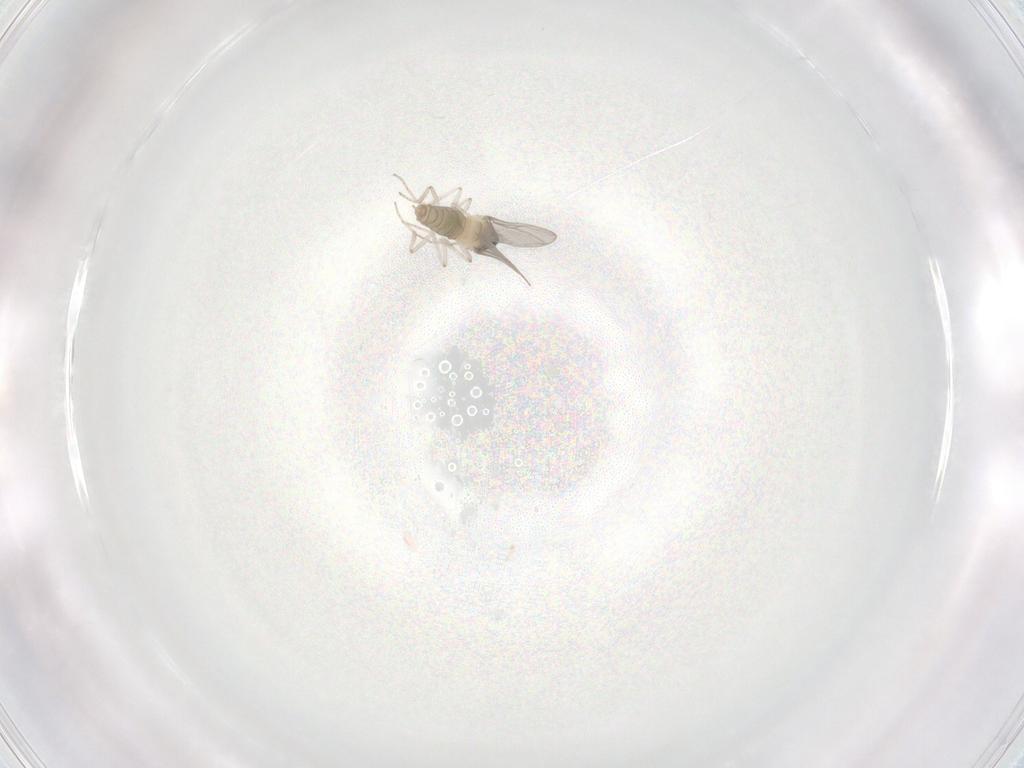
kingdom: Animalia
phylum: Arthropoda
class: Insecta
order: Diptera
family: Cecidomyiidae
